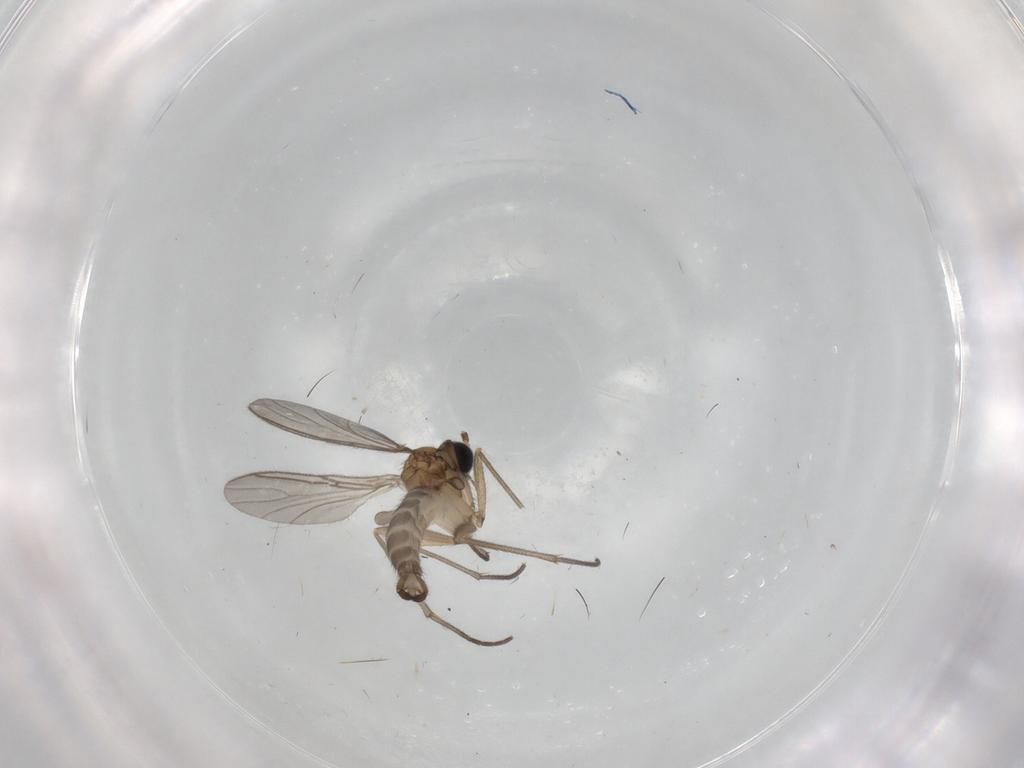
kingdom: Animalia
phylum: Arthropoda
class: Insecta
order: Diptera
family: Sciaridae
